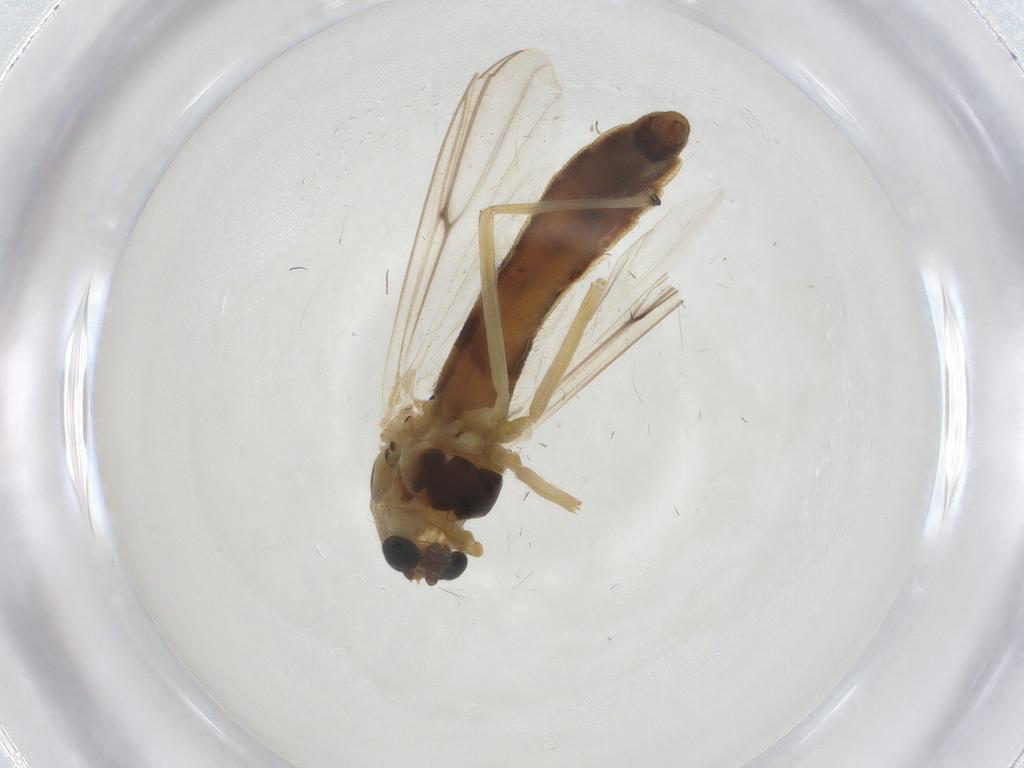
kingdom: Animalia
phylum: Arthropoda
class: Insecta
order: Diptera
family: Chironomidae
